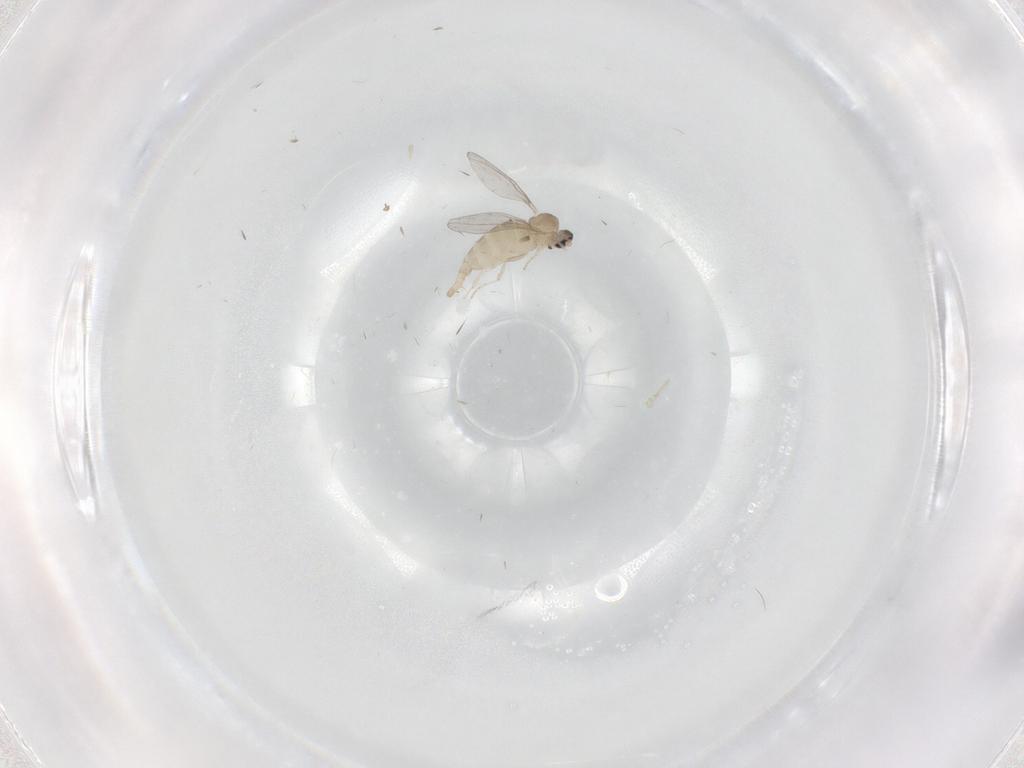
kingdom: Animalia
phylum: Arthropoda
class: Insecta
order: Diptera
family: Cecidomyiidae
